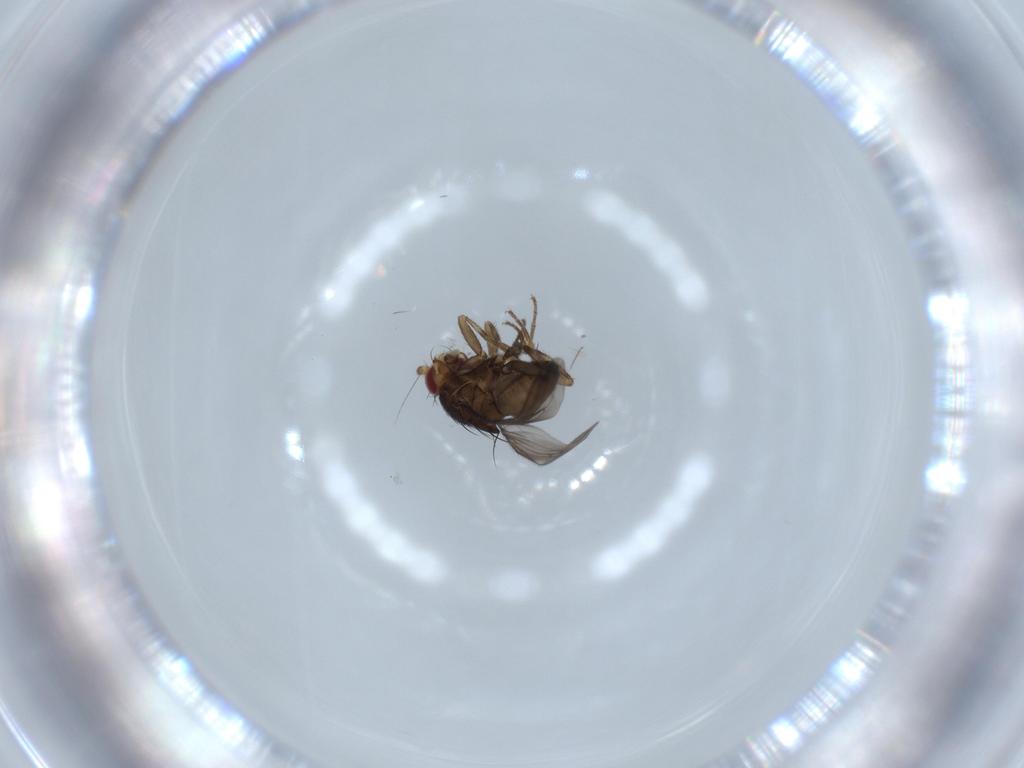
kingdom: Animalia
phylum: Arthropoda
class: Insecta
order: Diptera
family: Sphaeroceridae
